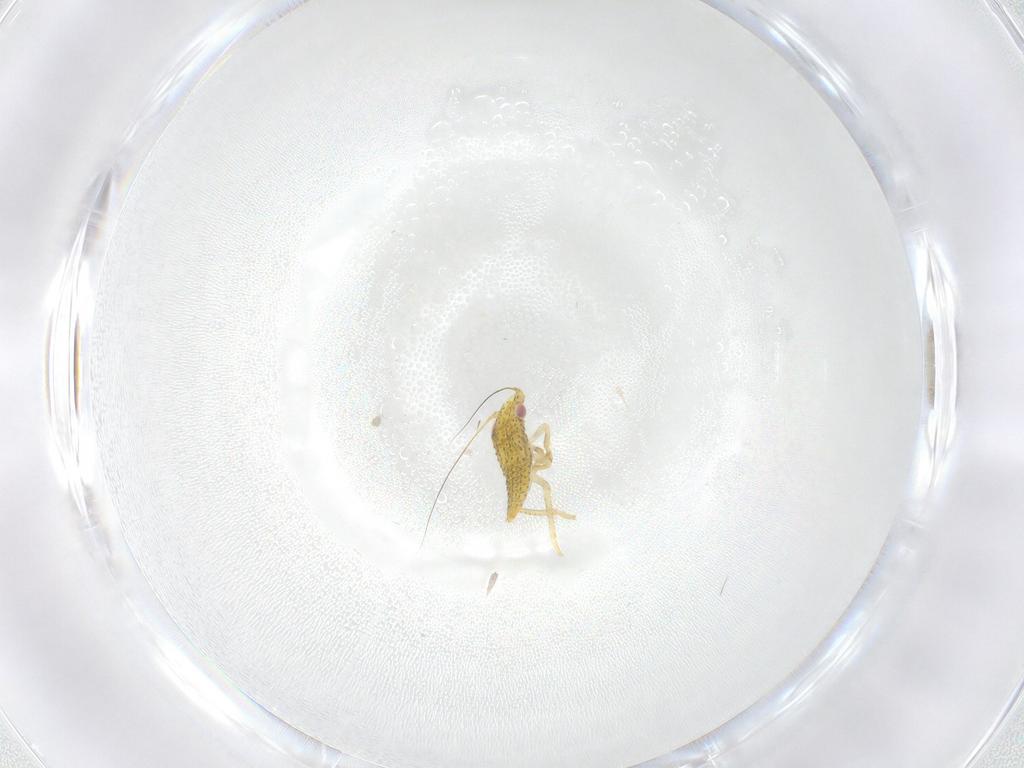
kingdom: Animalia
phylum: Arthropoda
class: Insecta
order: Hemiptera
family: Cicadellidae
